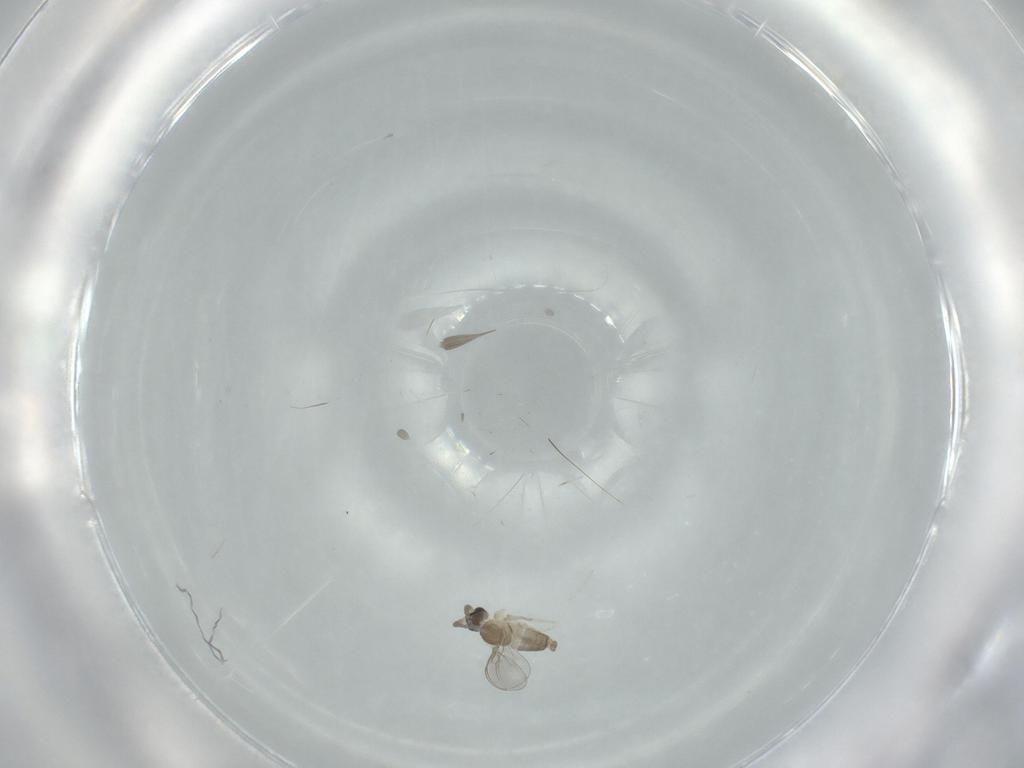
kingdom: Animalia
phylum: Arthropoda
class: Insecta
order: Diptera
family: Cecidomyiidae
